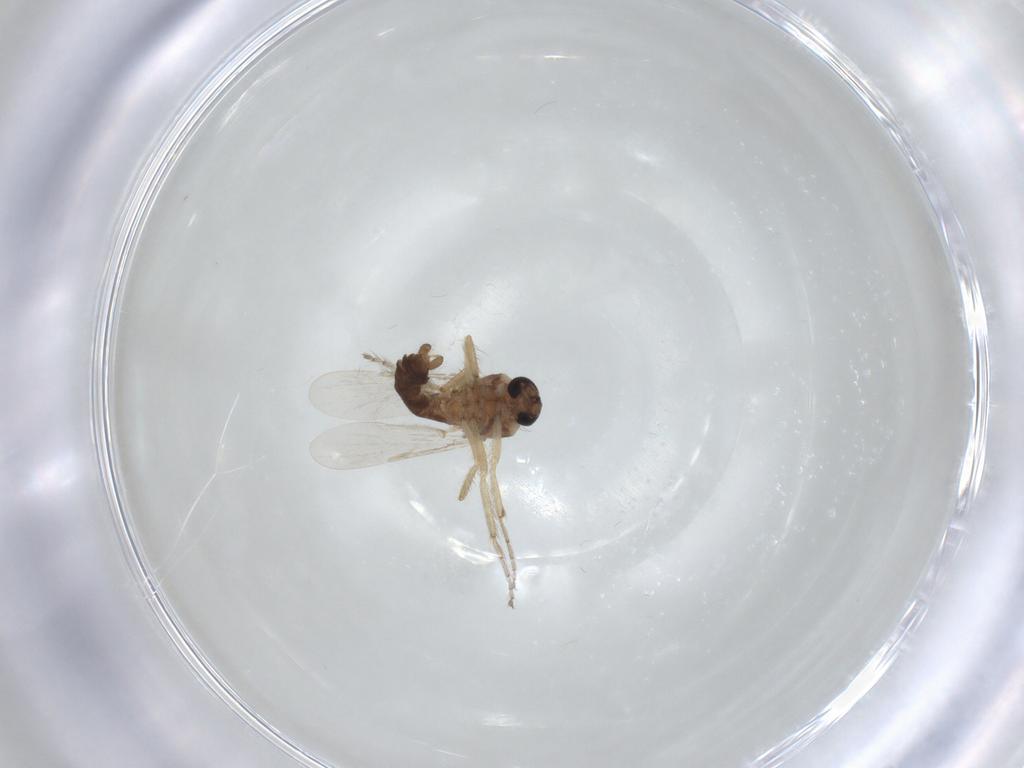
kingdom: Animalia
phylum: Arthropoda
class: Insecta
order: Diptera
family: Ceratopogonidae
